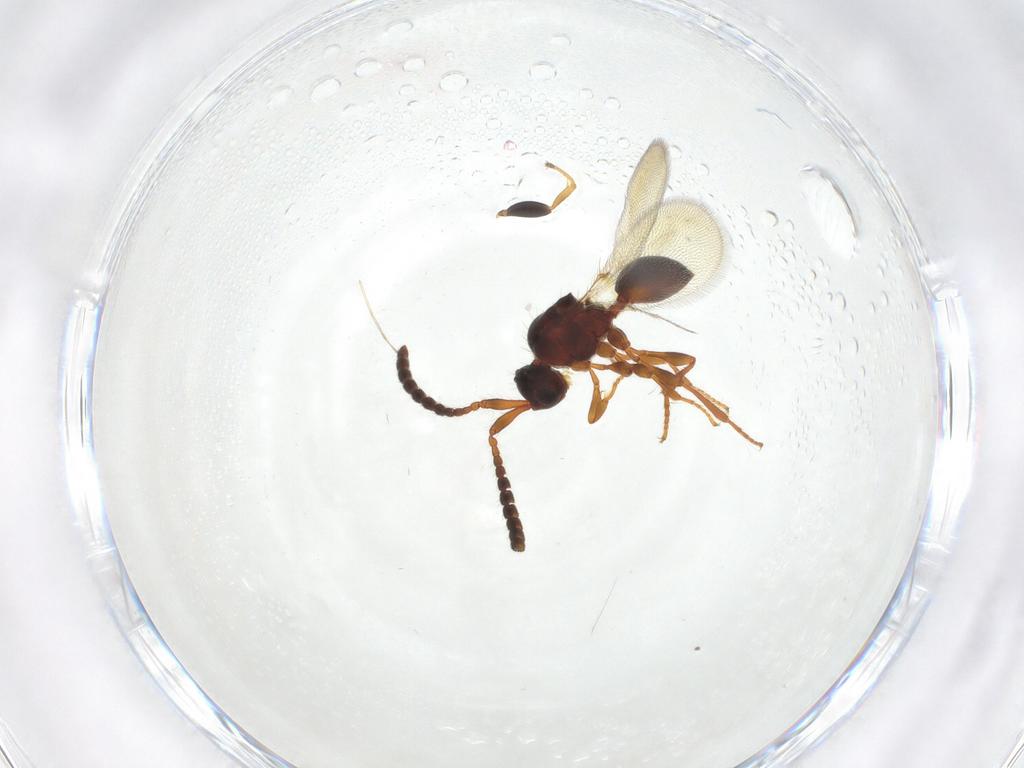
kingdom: Animalia
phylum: Arthropoda
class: Insecta
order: Hymenoptera
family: Diapriidae
